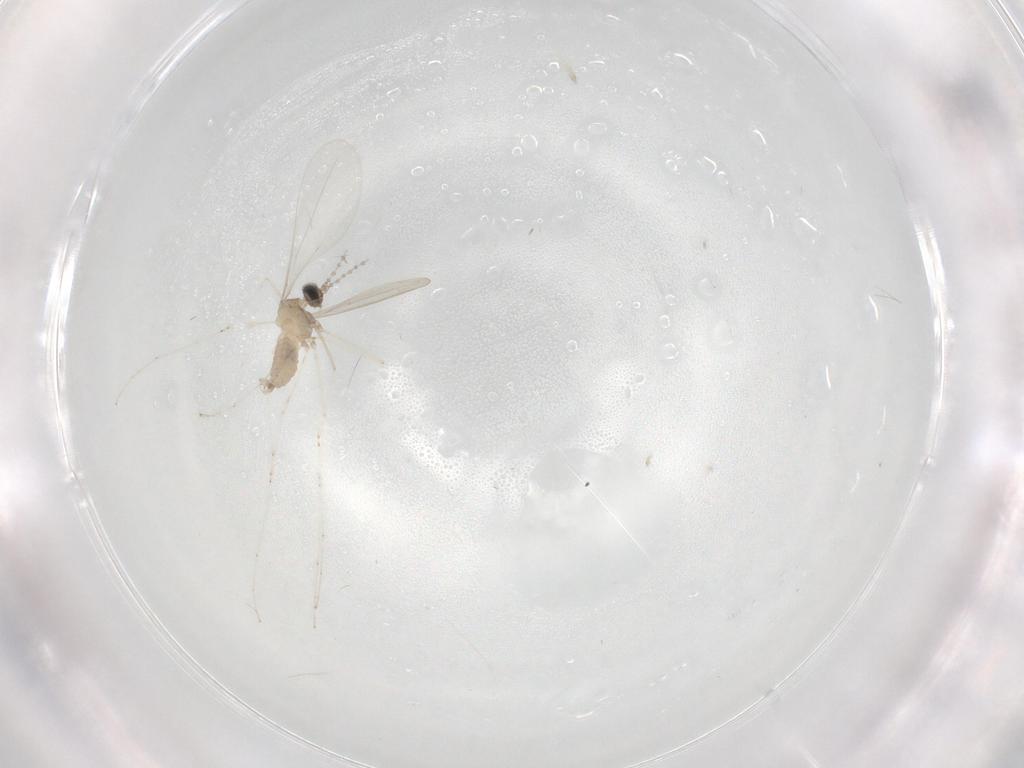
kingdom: Animalia
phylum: Arthropoda
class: Insecta
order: Diptera
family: Cecidomyiidae
